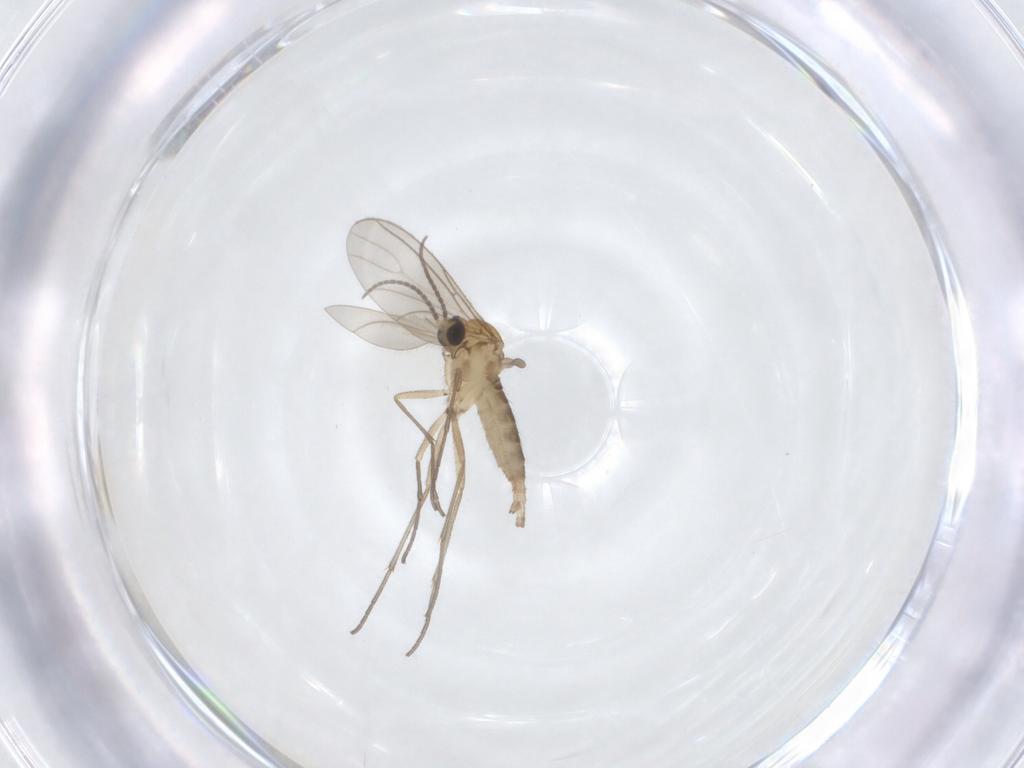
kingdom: Animalia
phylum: Arthropoda
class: Insecta
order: Diptera
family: Sciaridae
